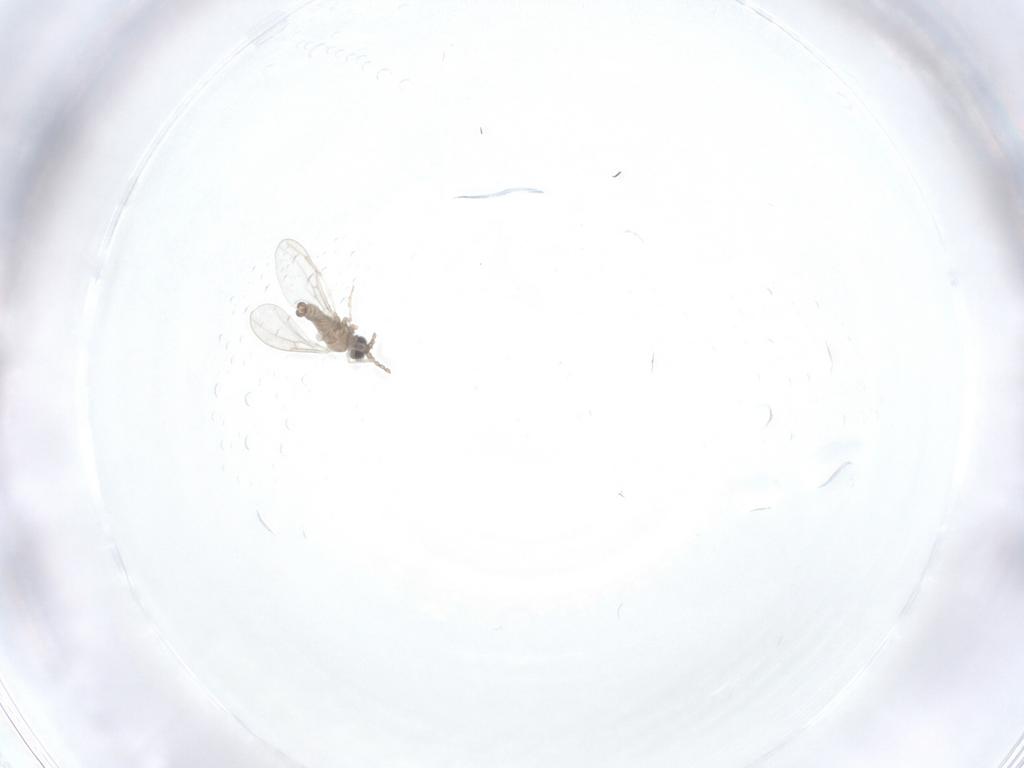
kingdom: Animalia
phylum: Arthropoda
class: Insecta
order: Diptera
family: Cecidomyiidae
